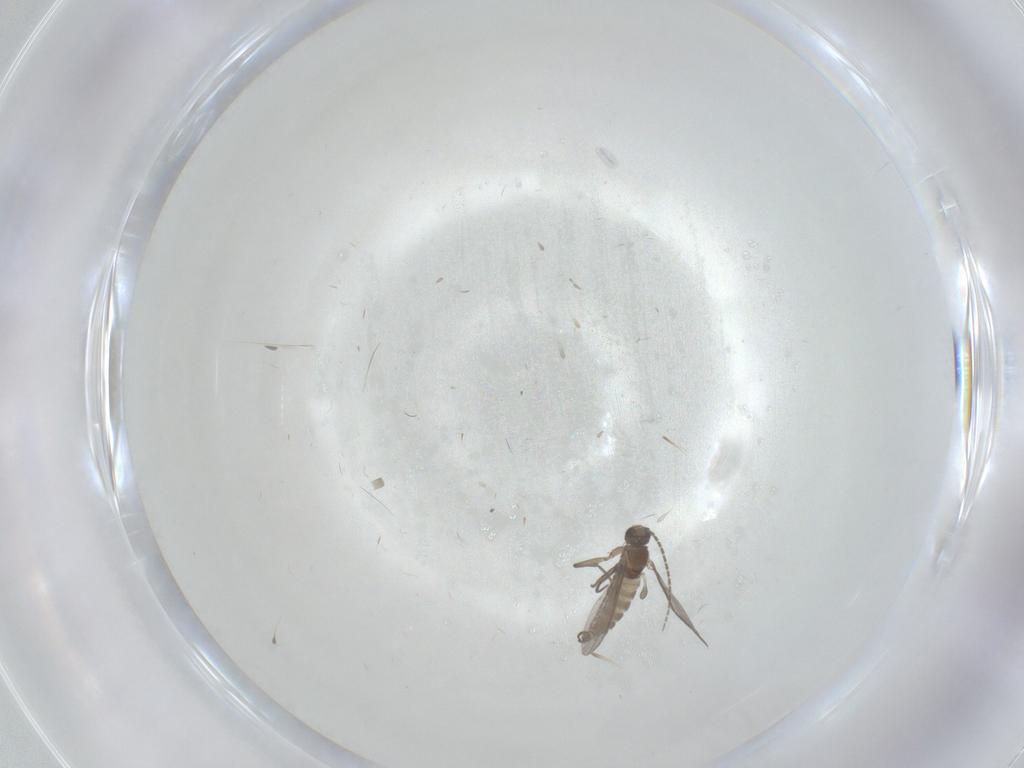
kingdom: Animalia
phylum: Arthropoda
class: Insecta
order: Diptera
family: Sciaridae
